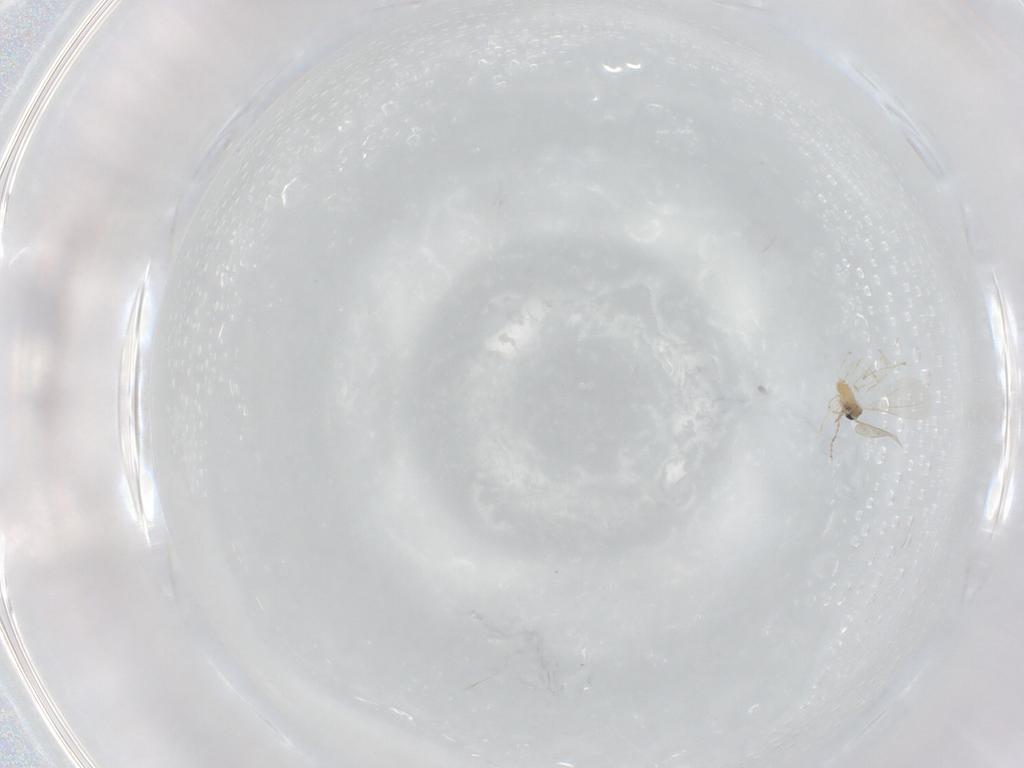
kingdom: Animalia
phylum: Arthropoda
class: Insecta
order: Diptera
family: Cecidomyiidae
